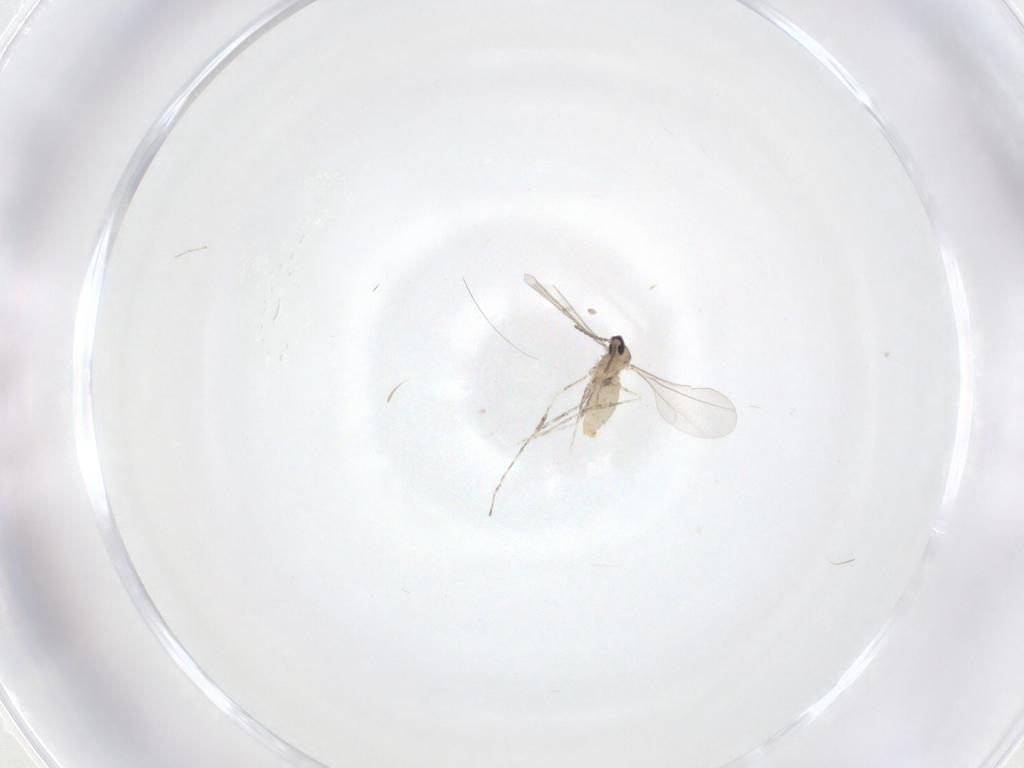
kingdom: Animalia
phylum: Arthropoda
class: Insecta
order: Diptera
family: Cecidomyiidae
